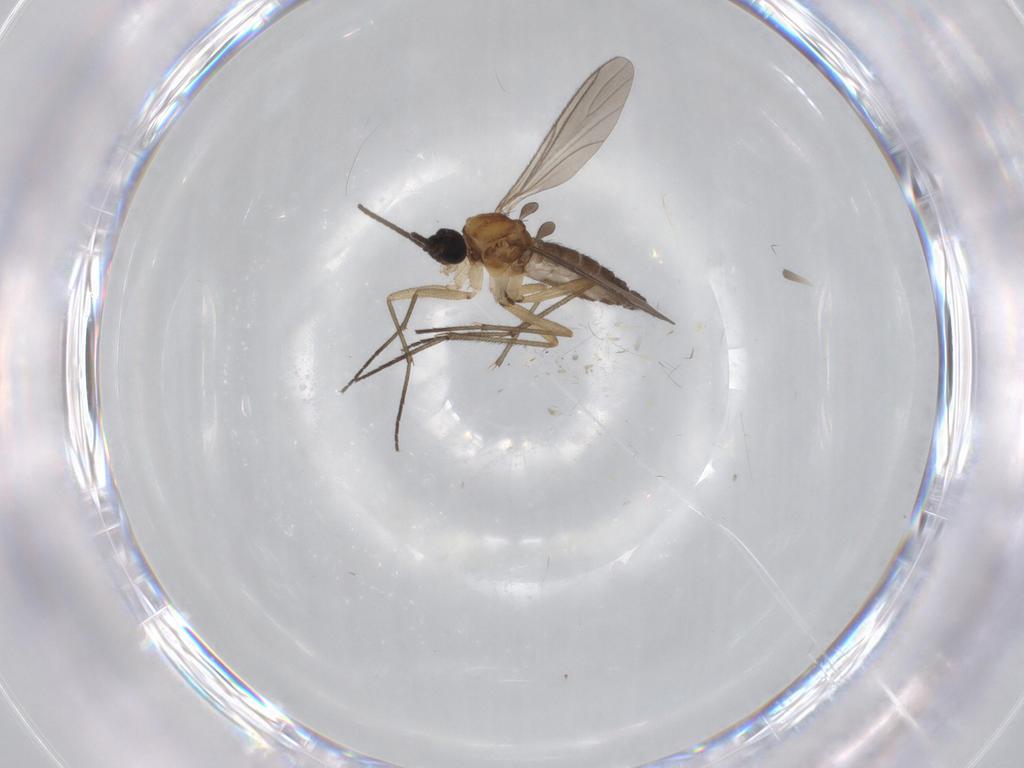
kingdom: Animalia
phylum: Arthropoda
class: Insecta
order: Diptera
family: Cecidomyiidae
